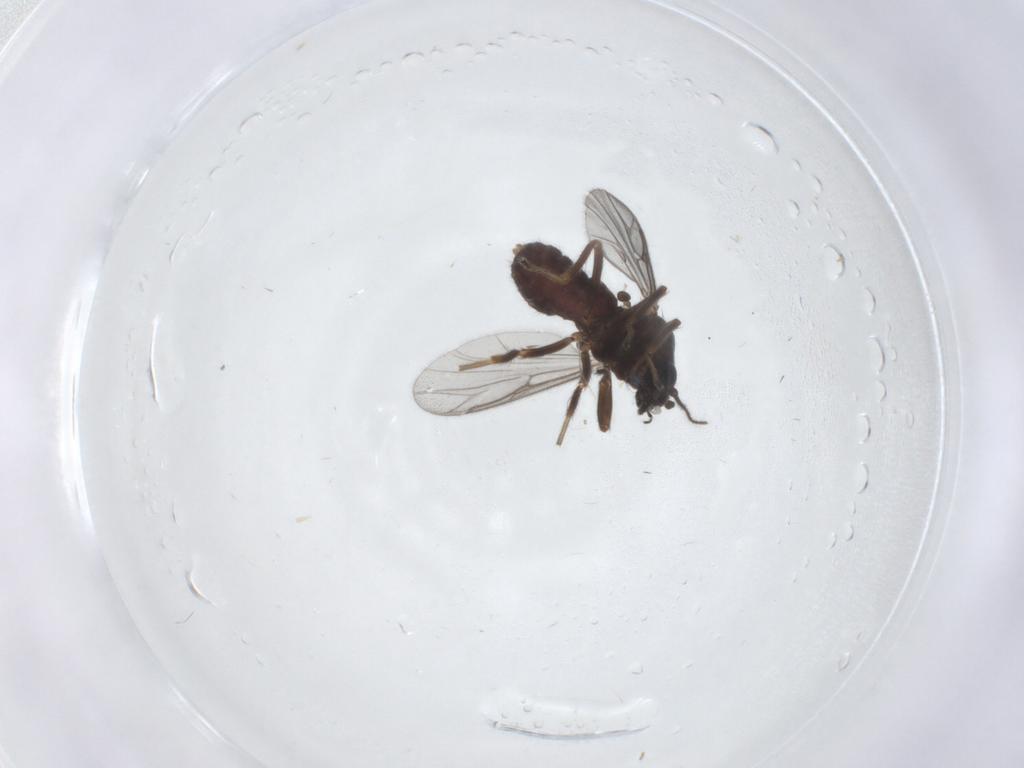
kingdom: Animalia
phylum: Arthropoda
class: Insecta
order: Diptera
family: Ceratopogonidae
